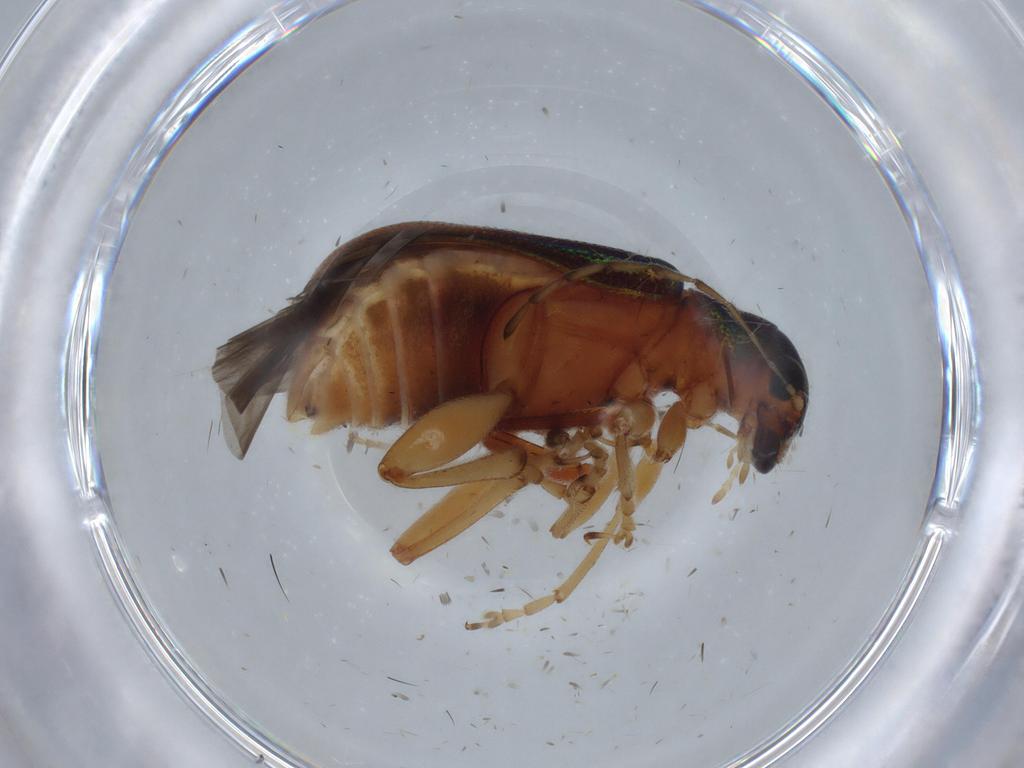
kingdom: Animalia
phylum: Arthropoda
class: Insecta
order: Coleoptera
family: Chrysomelidae
